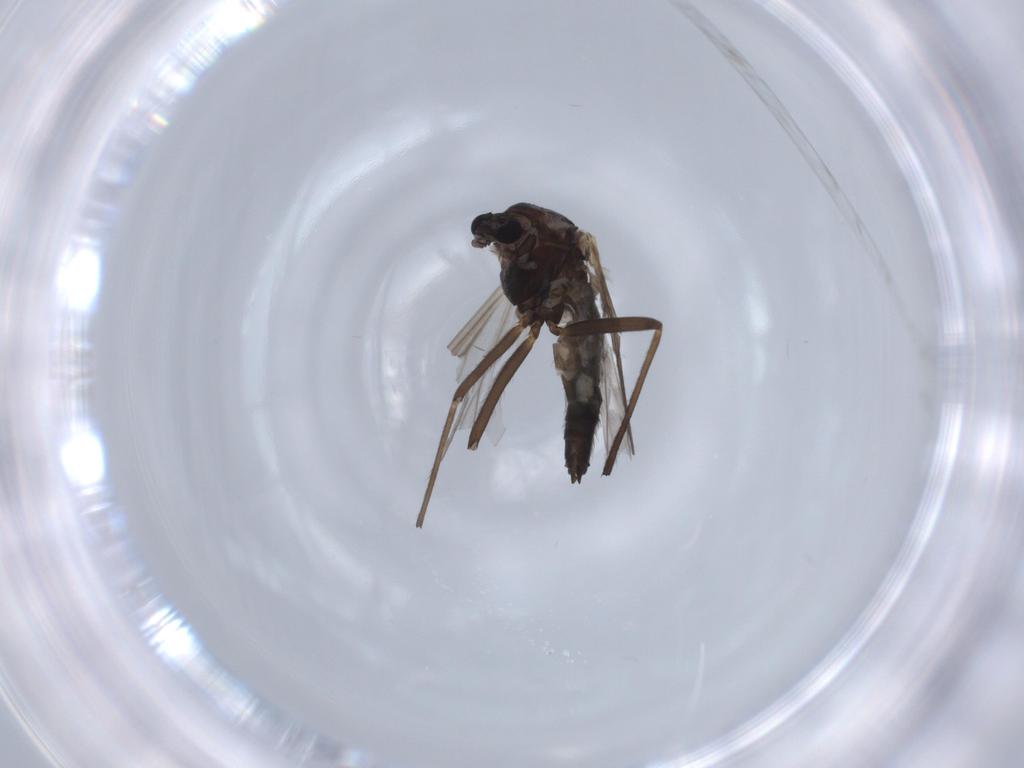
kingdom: Animalia
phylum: Arthropoda
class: Insecta
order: Diptera
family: Chironomidae
